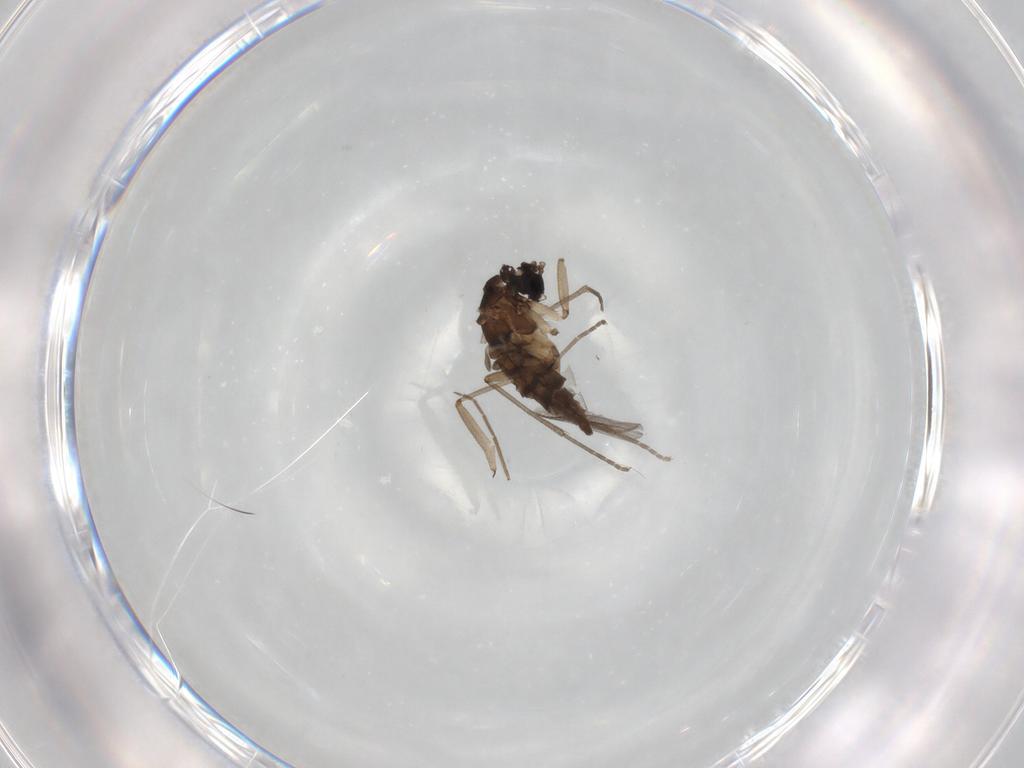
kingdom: Animalia
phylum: Arthropoda
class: Insecta
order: Diptera
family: Sciaridae
